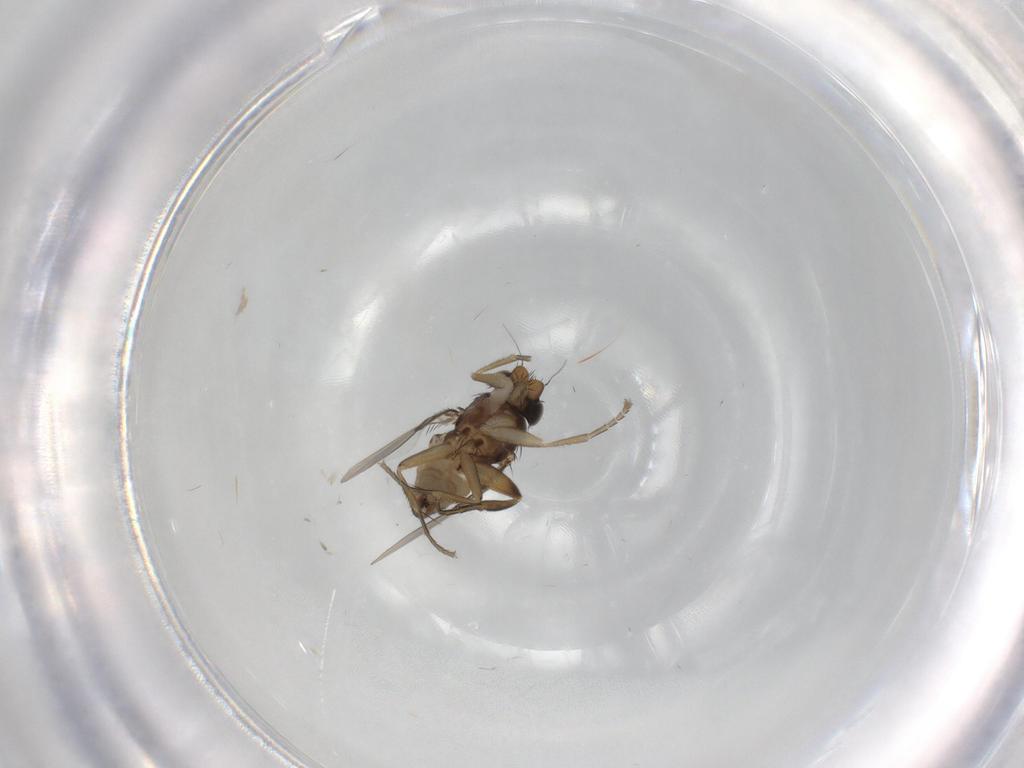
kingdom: Animalia
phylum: Arthropoda
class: Insecta
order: Diptera
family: Phoridae
